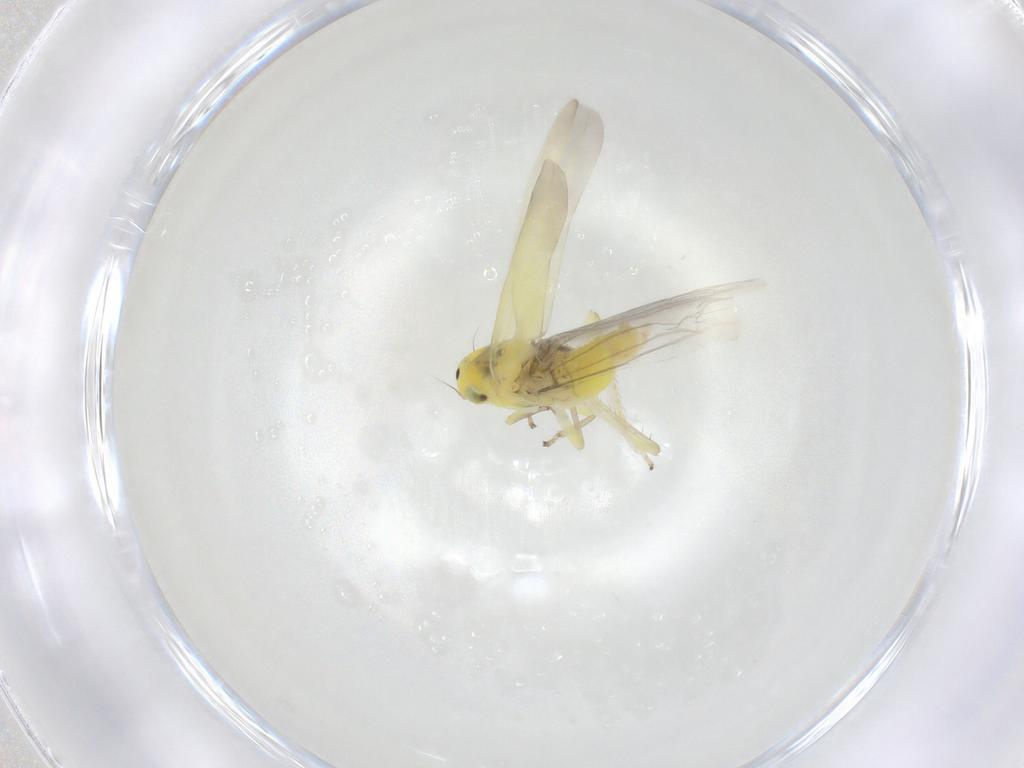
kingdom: Animalia
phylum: Arthropoda
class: Insecta
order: Hemiptera
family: Cicadellidae
